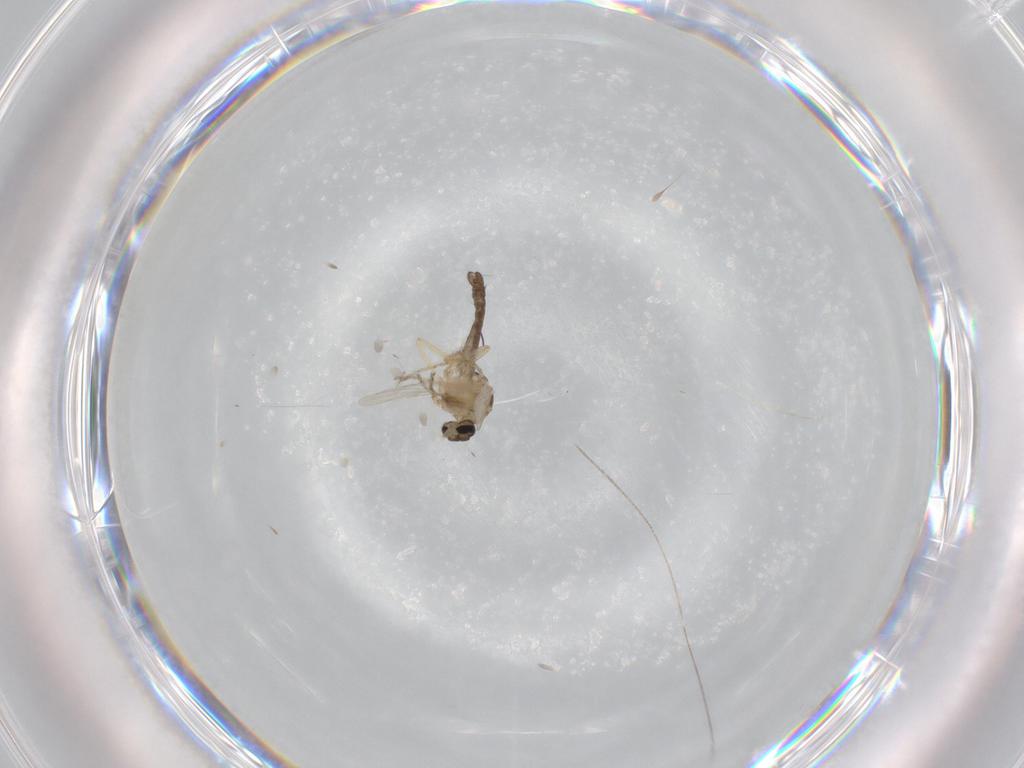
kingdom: Animalia
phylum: Arthropoda
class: Insecta
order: Diptera
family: Ceratopogonidae
